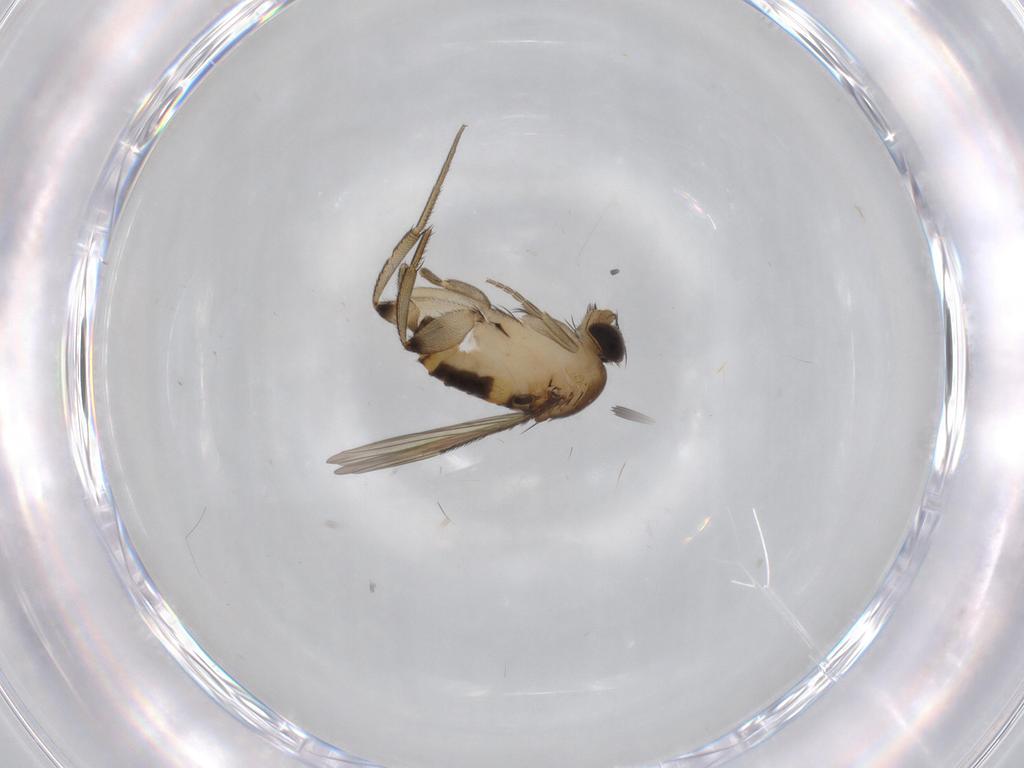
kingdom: Animalia
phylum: Arthropoda
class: Insecta
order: Diptera
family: Phoridae
